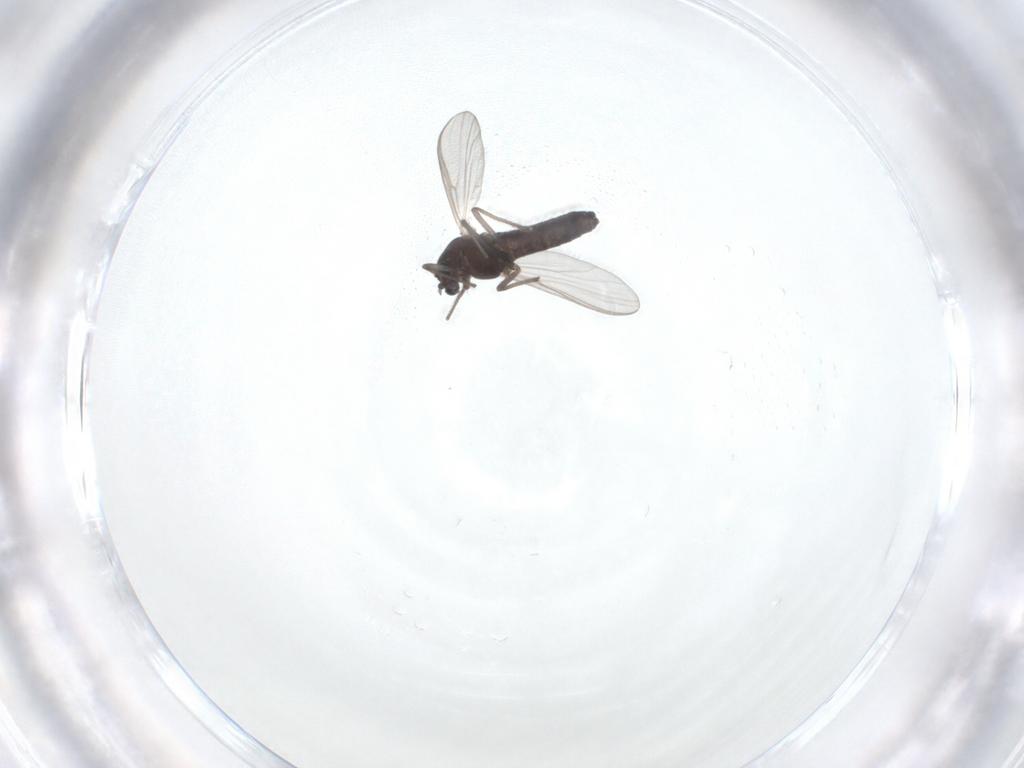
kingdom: Animalia
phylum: Arthropoda
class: Insecta
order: Diptera
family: Chironomidae
